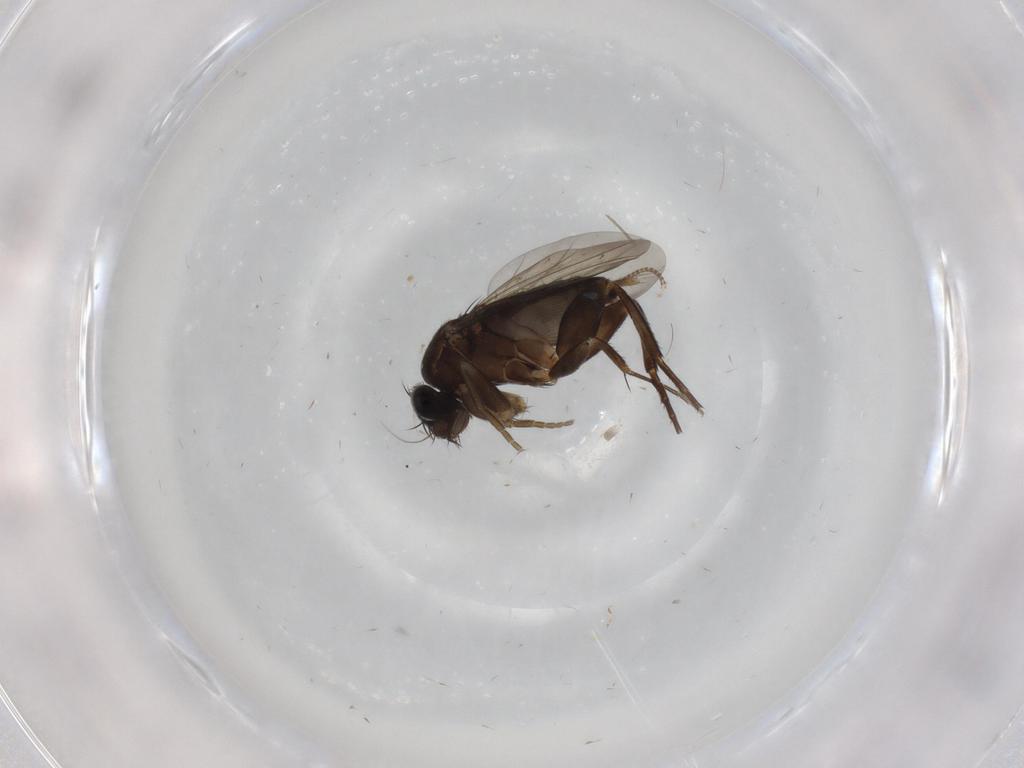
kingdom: Animalia
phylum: Arthropoda
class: Insecta
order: Diptera
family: Phoridae
